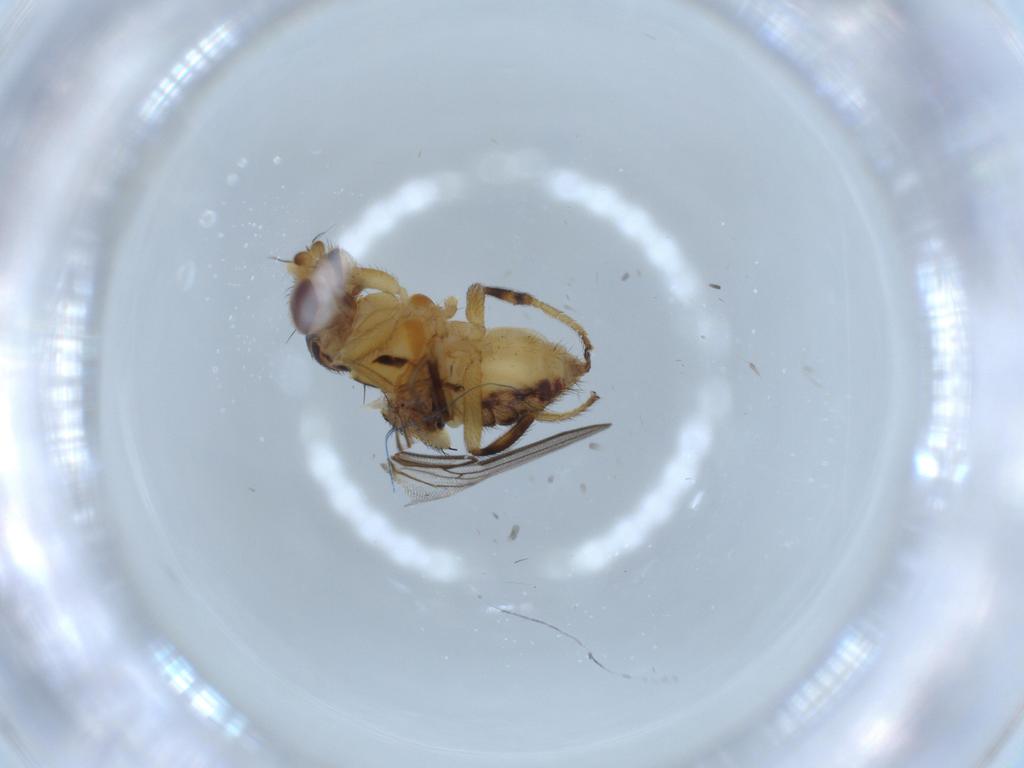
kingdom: Animalia
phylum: Arthropoda
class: Insecta
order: Diptera
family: Chloropidae
